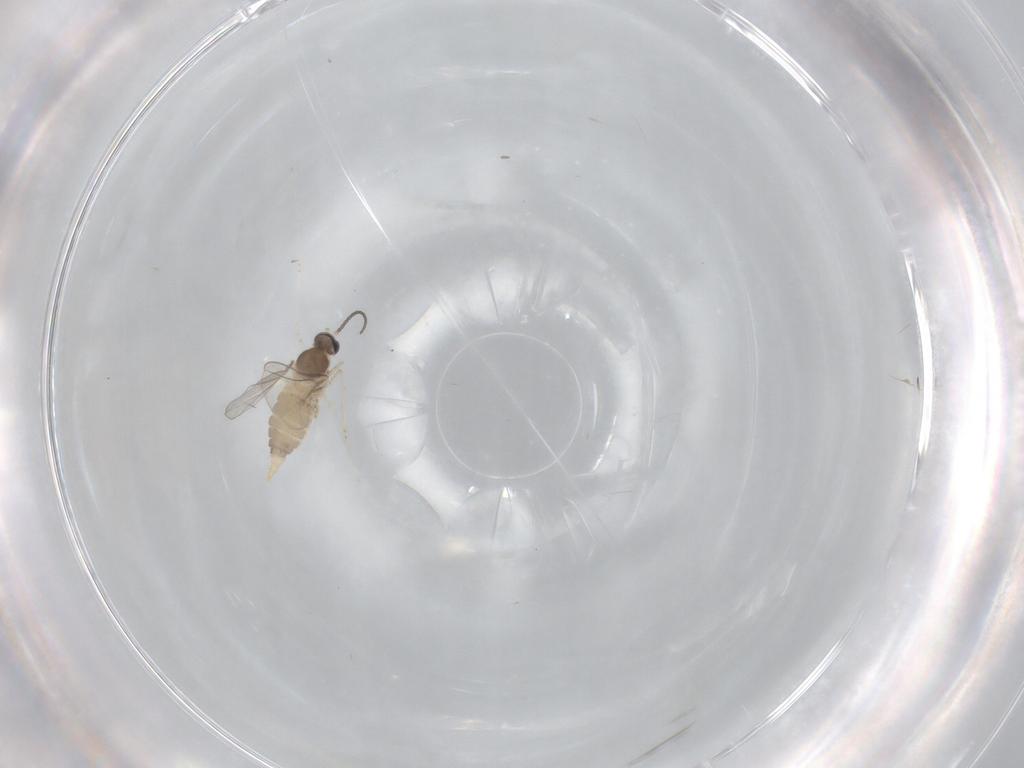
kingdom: Animalia
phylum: Arthropoda
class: Insecta
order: Diptera
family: Cecidomyiidae
